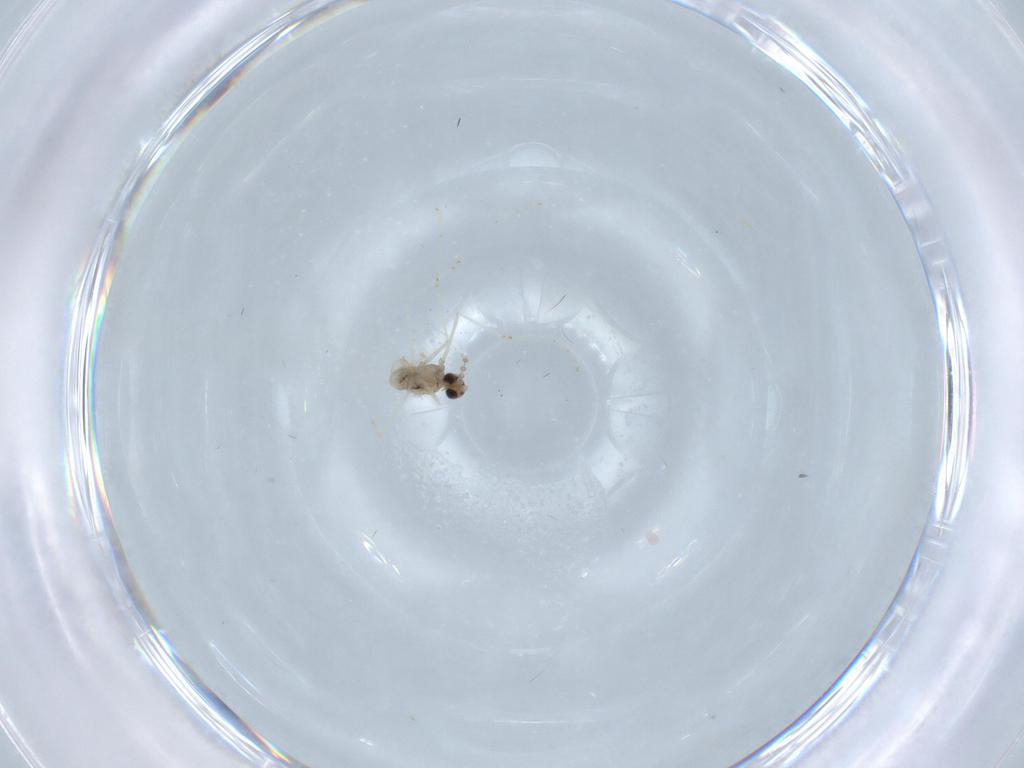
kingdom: Animalia
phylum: Arthropoda
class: Insecta
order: Diptera
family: Cecidomyiidae
